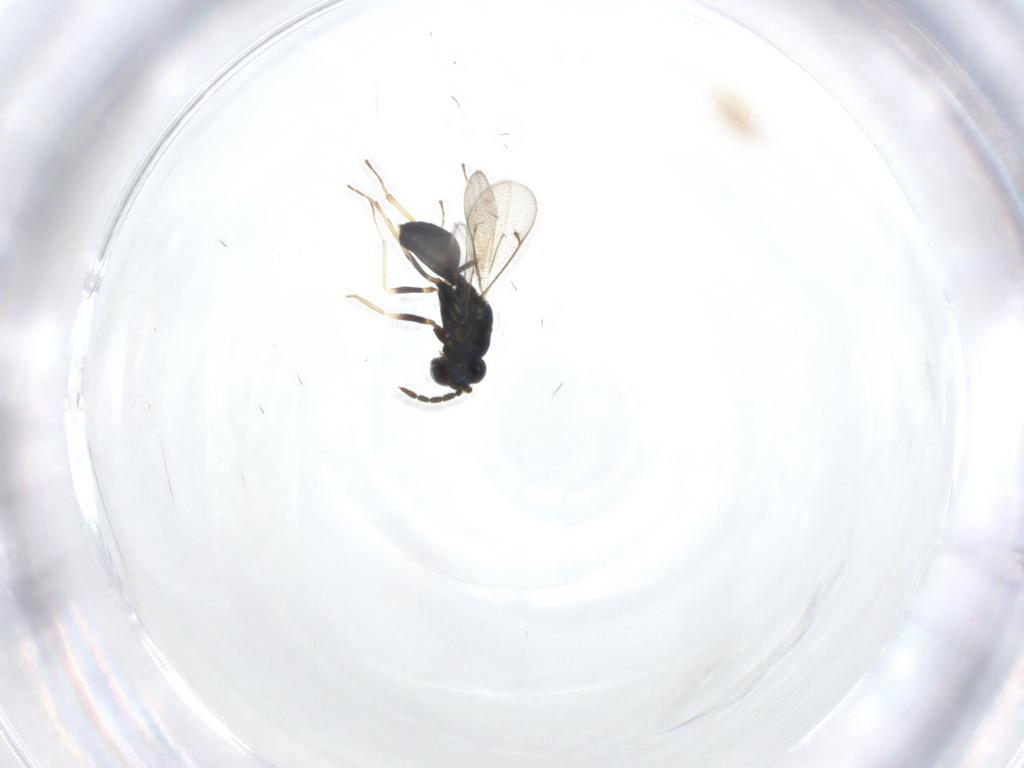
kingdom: Animalia
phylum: Arthropoda
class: Insecta
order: Hymenoptera
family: Eulophidae
